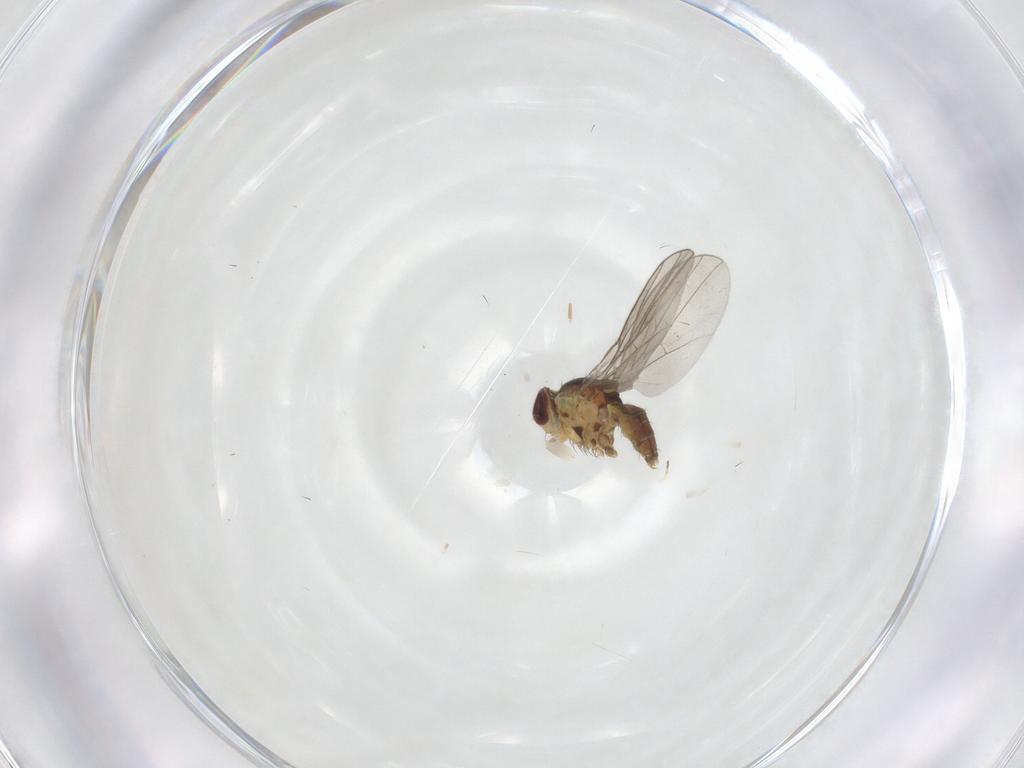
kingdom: Animalia
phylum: Arthropoda
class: Insecta
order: Diptera
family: Agromyzidae
